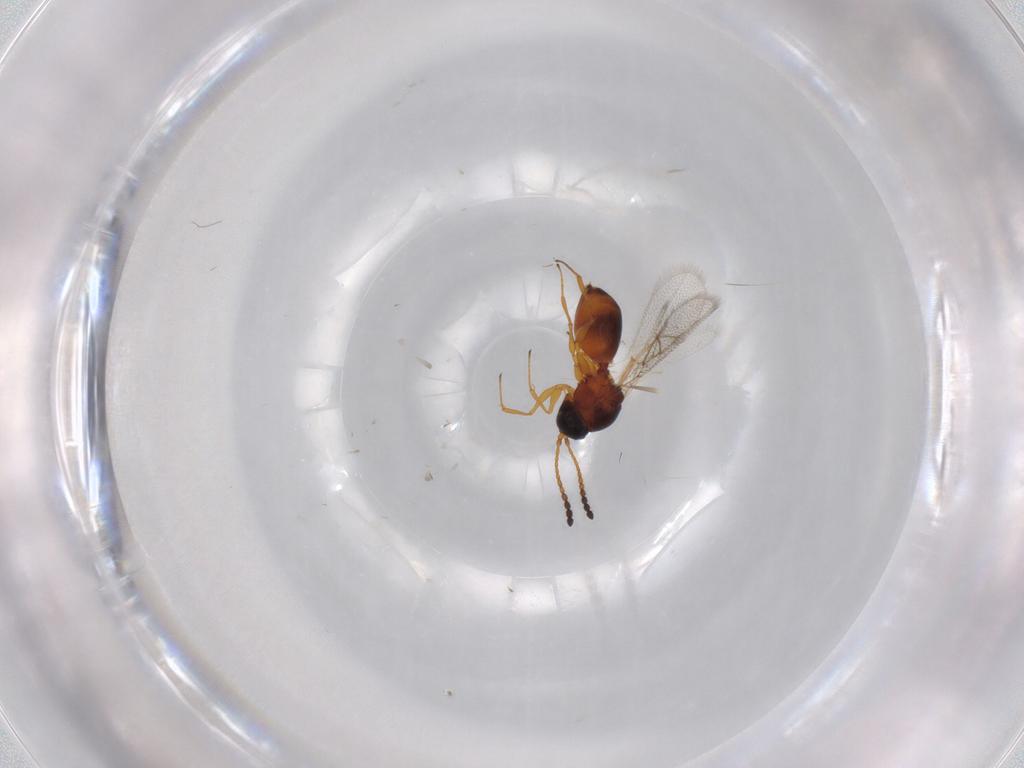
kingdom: Animalia
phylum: Arthropoda
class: Insecta
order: Hymenoptera
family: Figitidae
